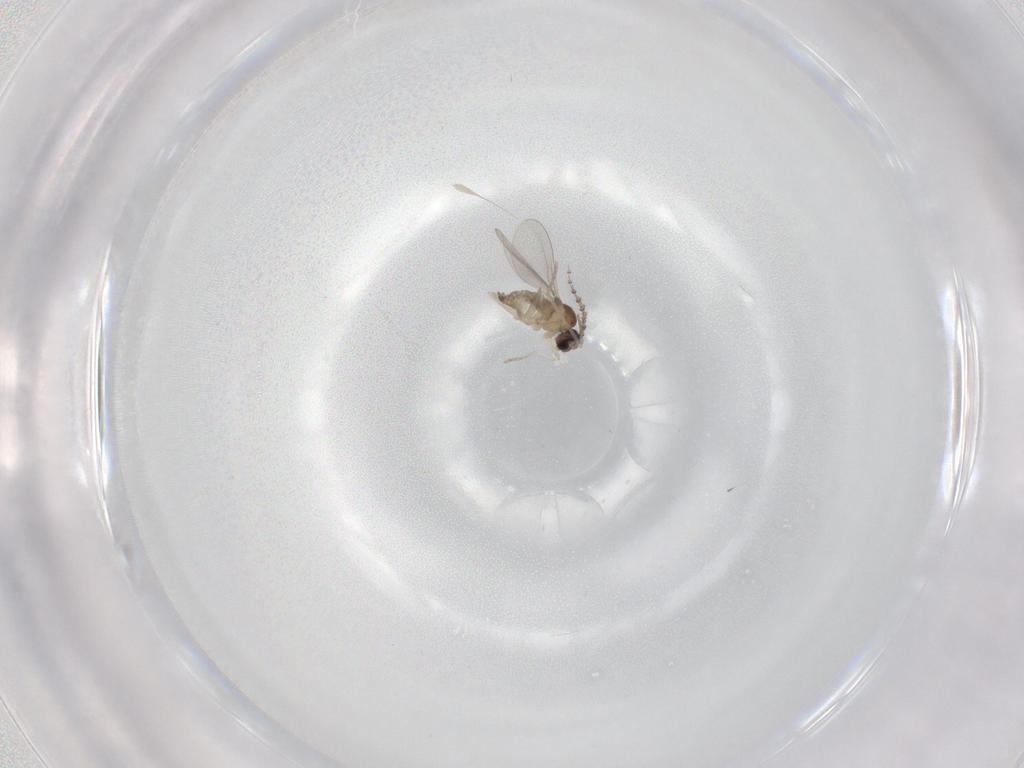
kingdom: Animalia
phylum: Arthropoda
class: Insecta
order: Diptera
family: Cecidomyiidae
